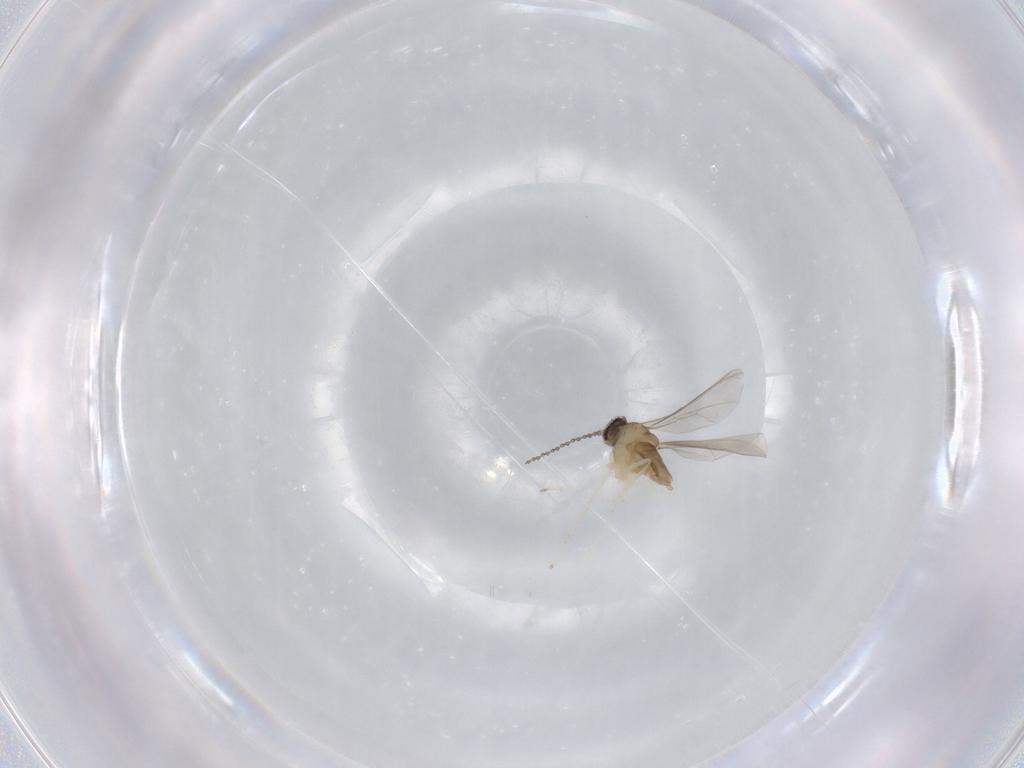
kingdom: Animalia
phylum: Arthropoda
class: Insecta
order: Diptera
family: Cecidomyiidae
